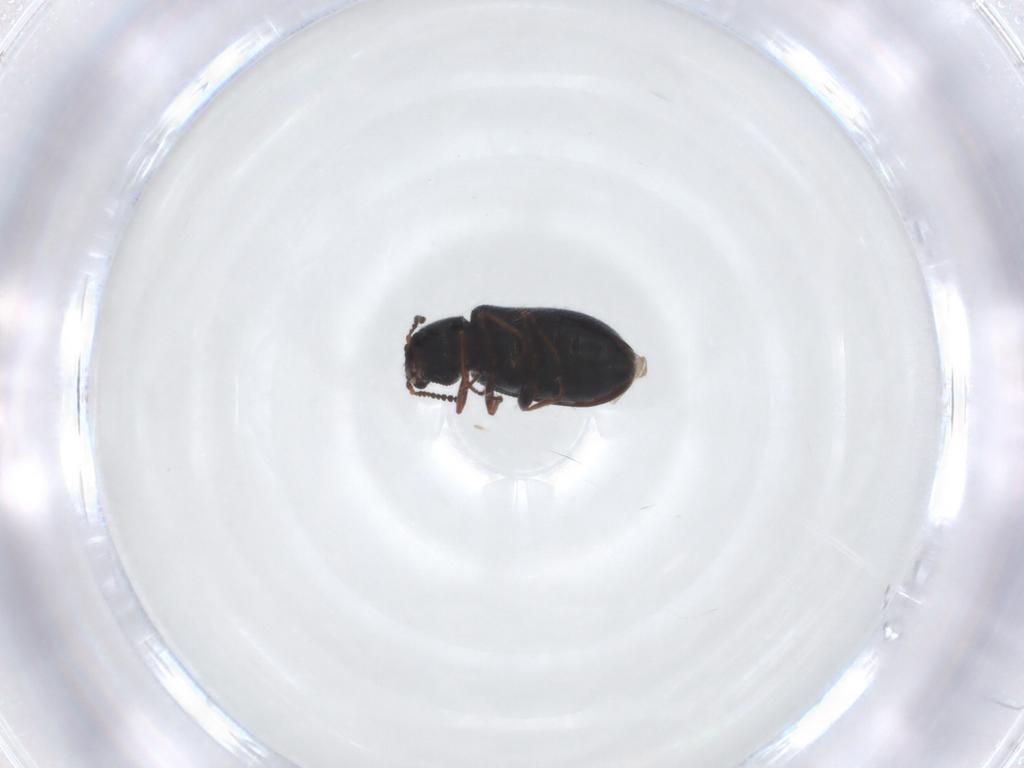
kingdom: Animalia
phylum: Arthropoda
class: Insecta
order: Coleoptera
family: Melyridae
